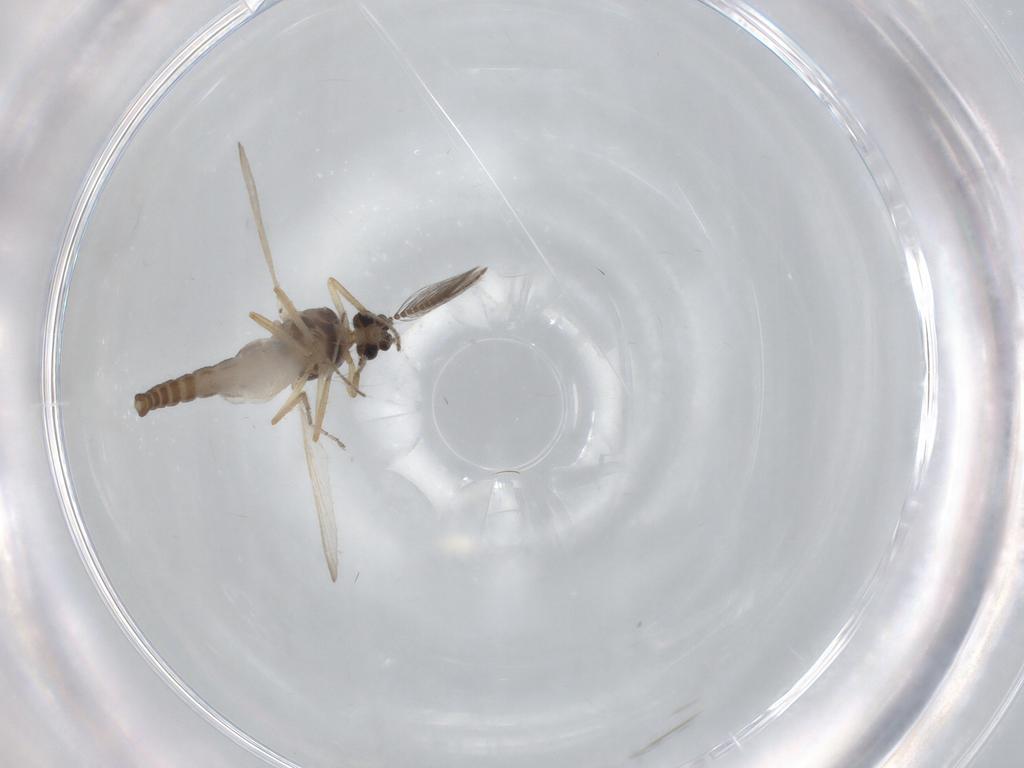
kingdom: Animalia
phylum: Arthropoda
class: Insecta
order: Diptera
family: Ceratopogonidae
